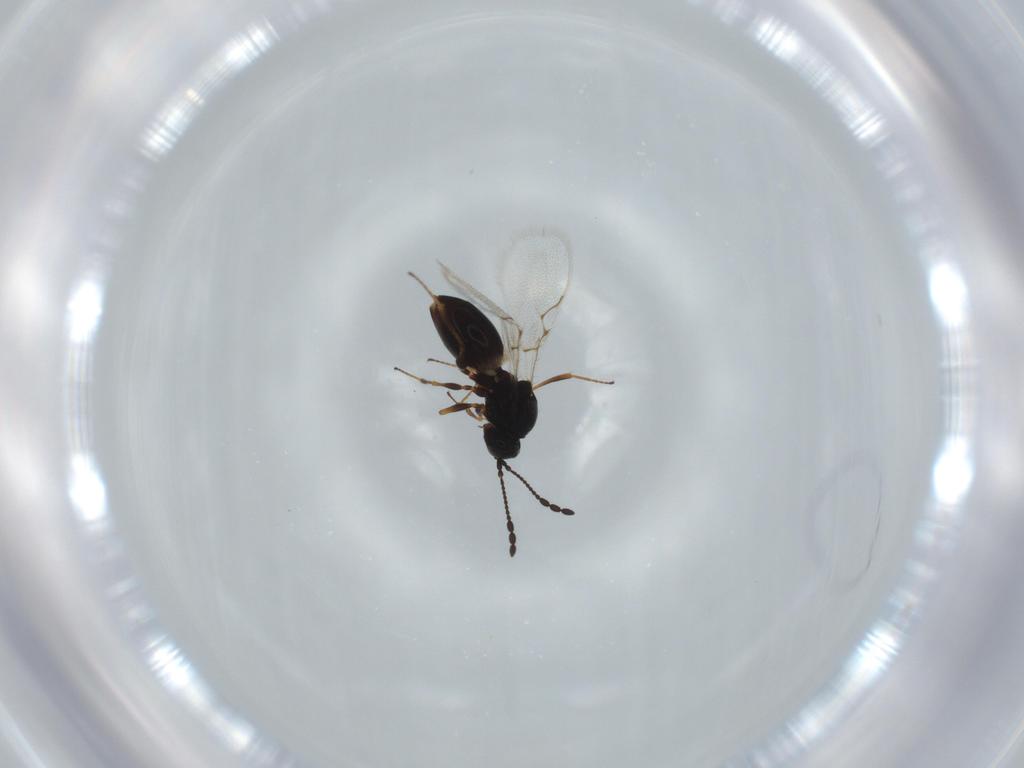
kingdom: Animalia
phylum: Arthropoda
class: Insecta
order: Hymenoptera
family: Figitidae
